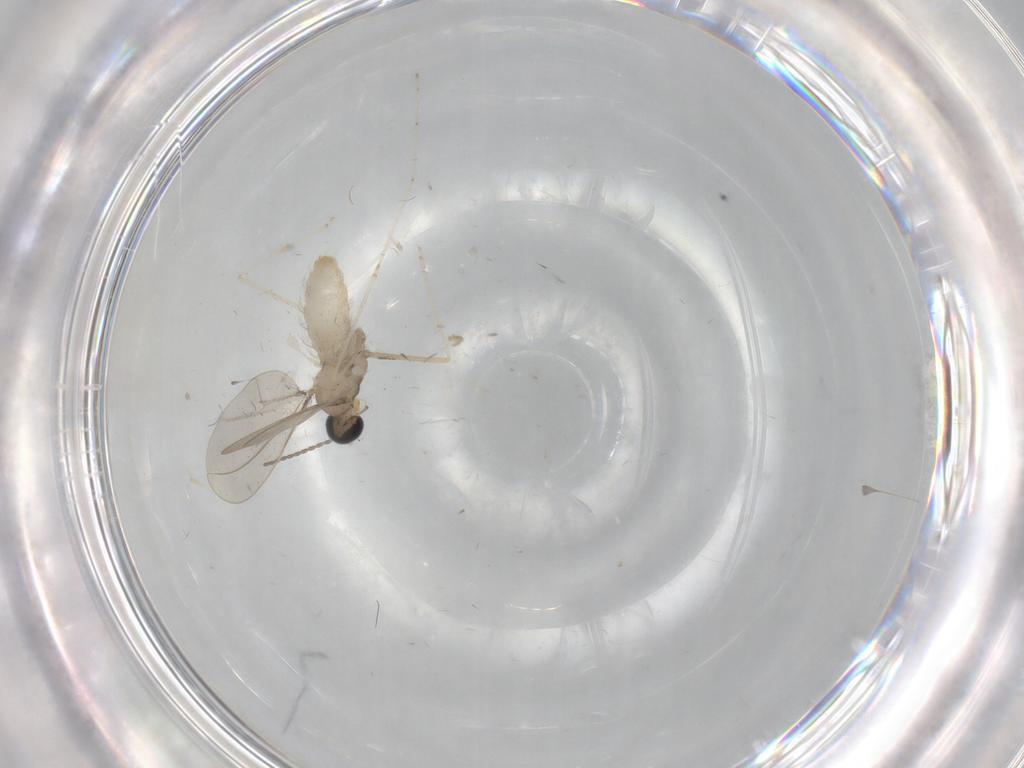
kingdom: Animalia
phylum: Arthropoda
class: Insecta
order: Diptera
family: Cecidomyiidae
